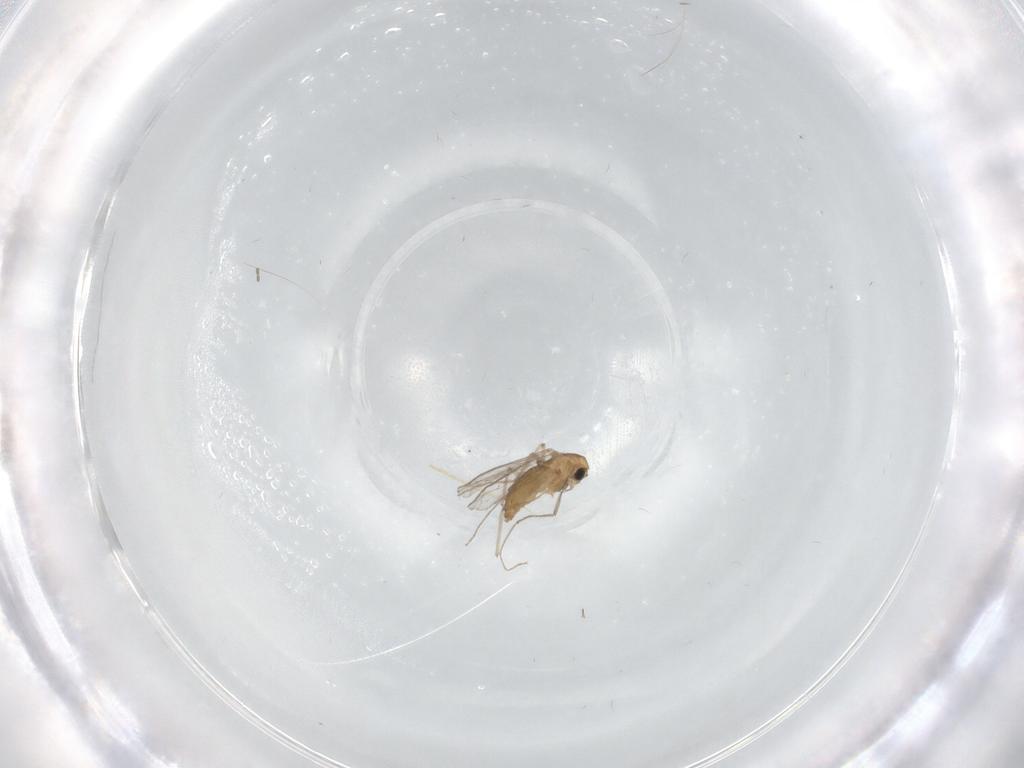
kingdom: Animalia
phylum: Arthropoda
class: Insecta
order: Diptera
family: Chironomidae
